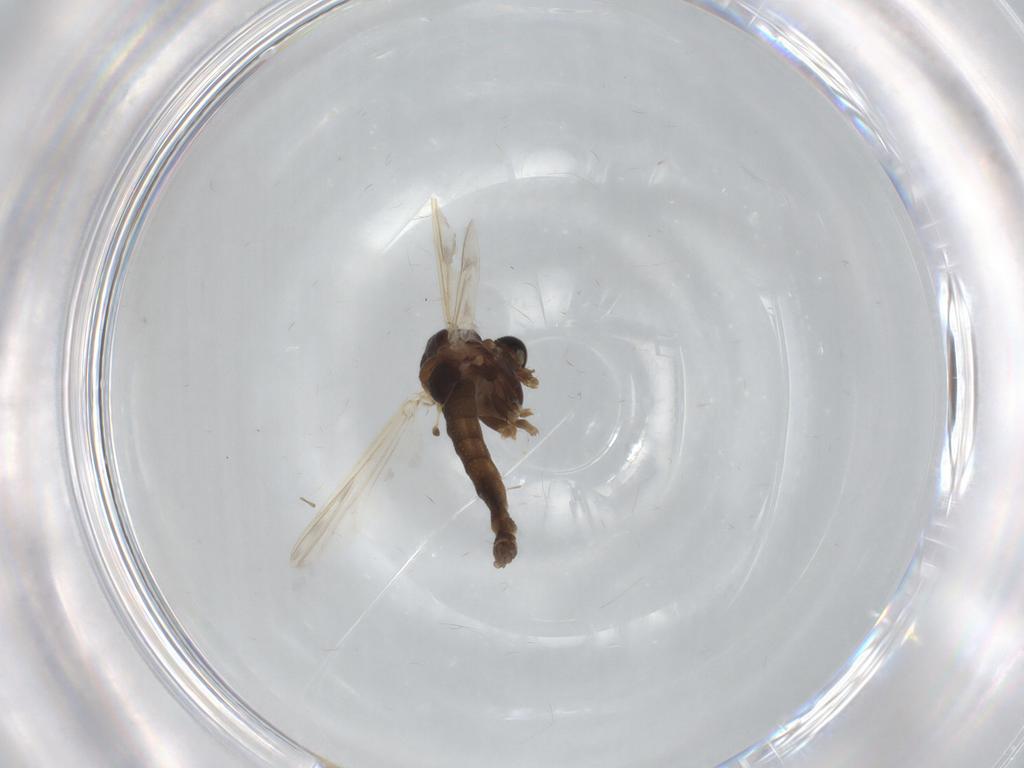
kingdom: Animalia
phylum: Arthropoda
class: Insecta
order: Diptera
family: Chironomidae
